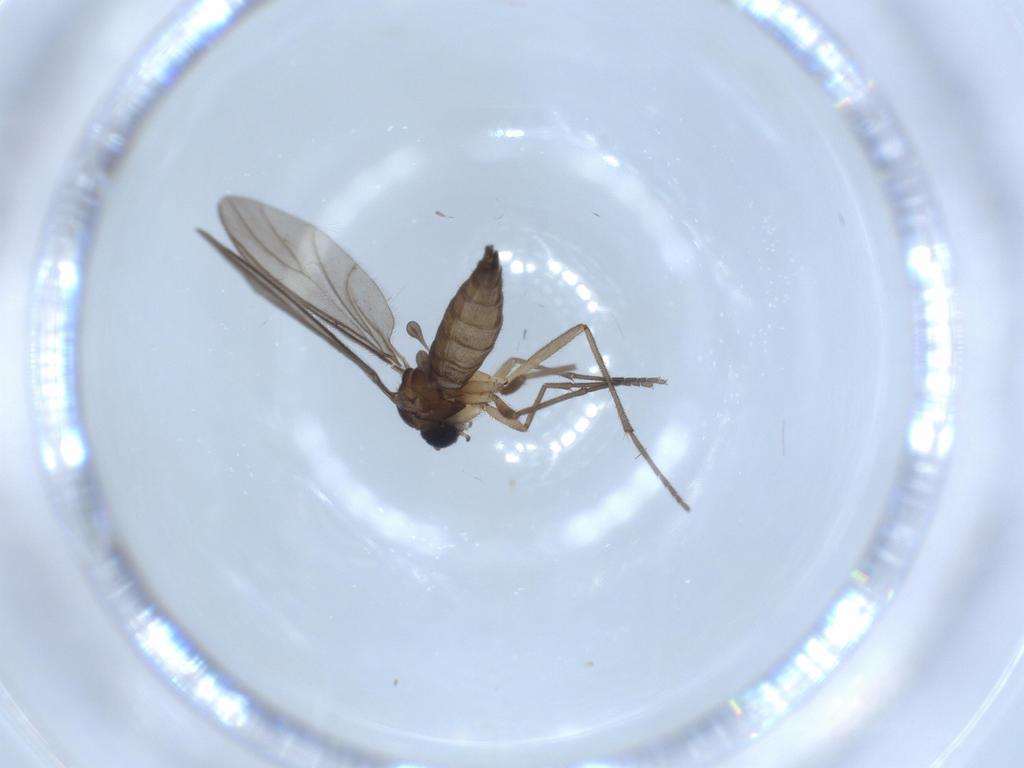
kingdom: Animalia
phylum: Arthropoda
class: Insecta
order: Diptera
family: Sciaridae
